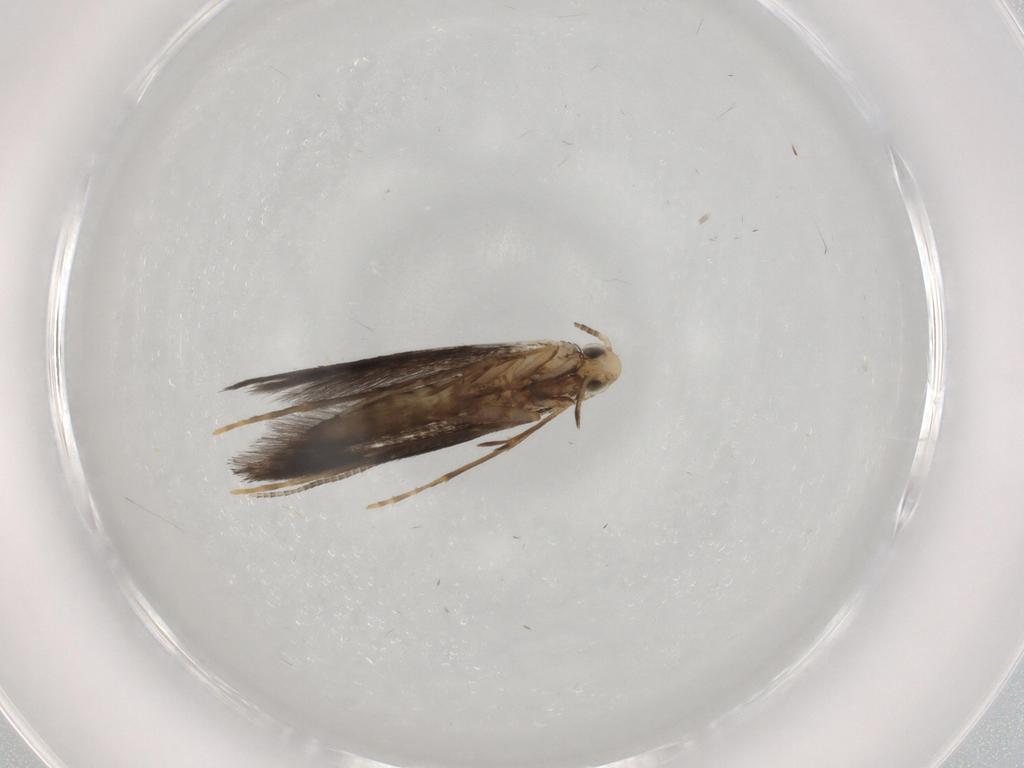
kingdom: Animalia
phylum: Arthropoda
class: Insecta
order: Lepidoptera
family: Gracillariidae
